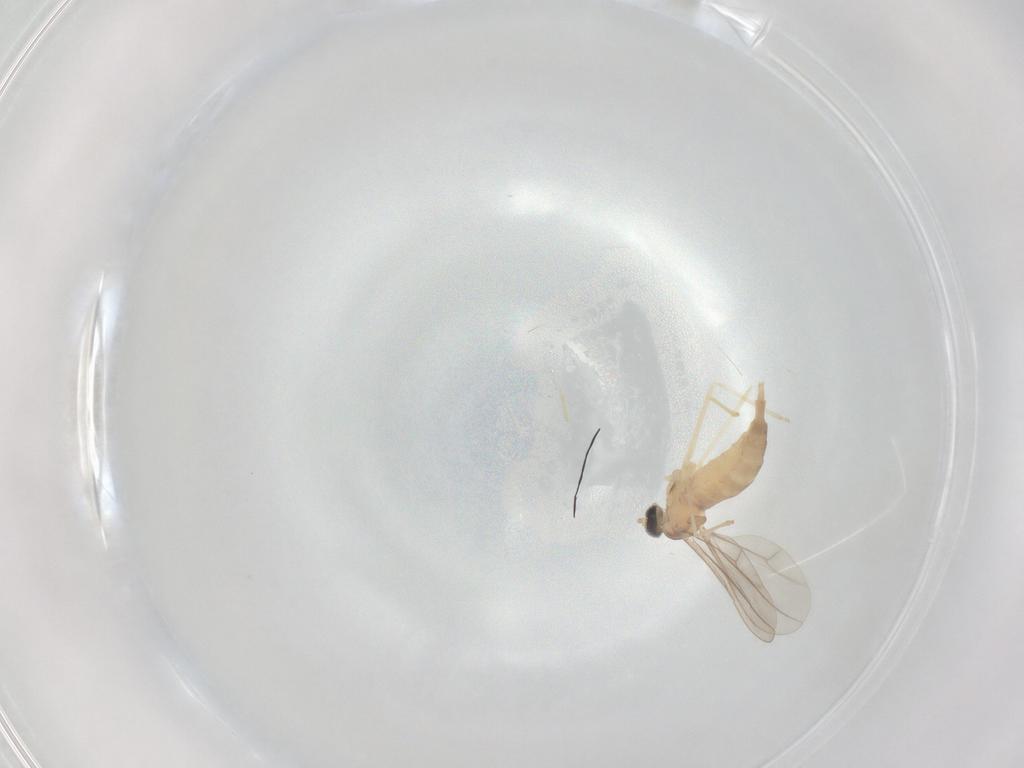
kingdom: Animalia
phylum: Arthropoda
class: Insecta
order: Diptera
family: Cecidomyiidae
